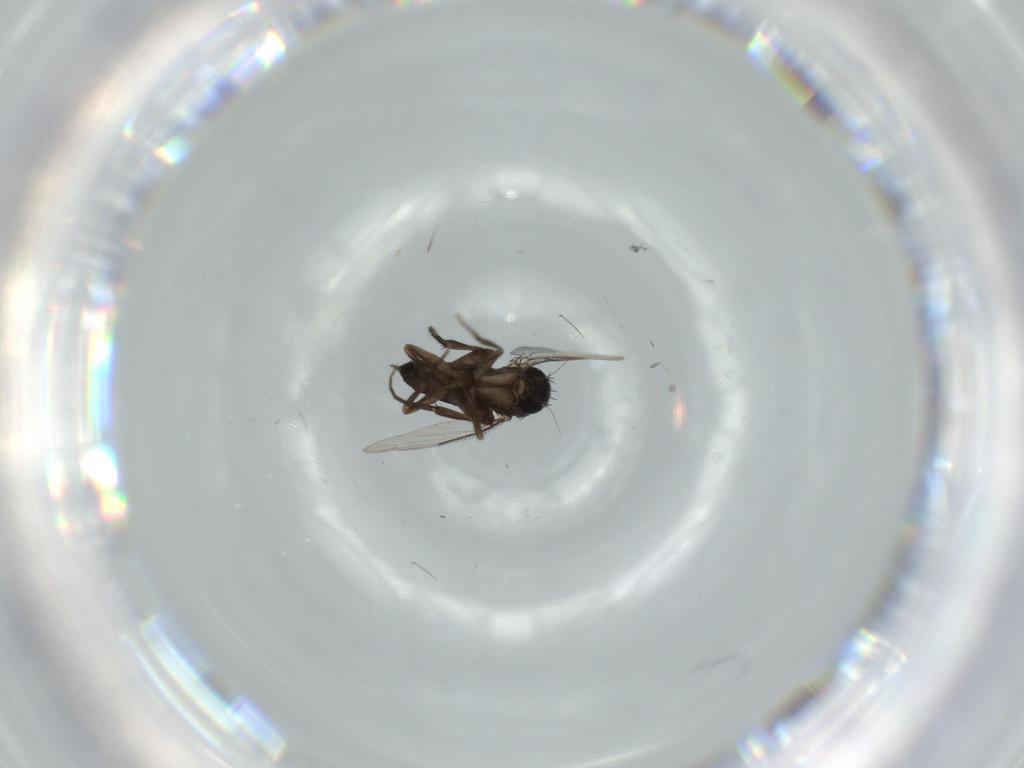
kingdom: Animalia
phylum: Arthropoda
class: Insecta
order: Diptera
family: Phoridae
